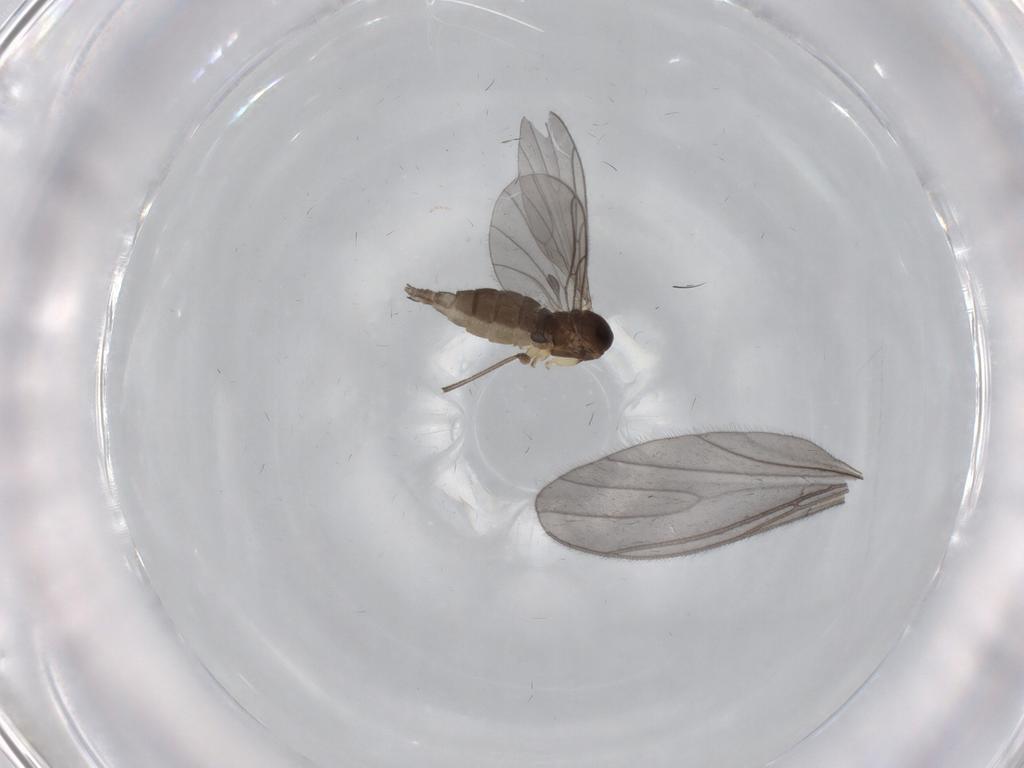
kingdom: Animalia
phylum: Arthropoda
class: Insecta
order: Diptera
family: Sciaridae
